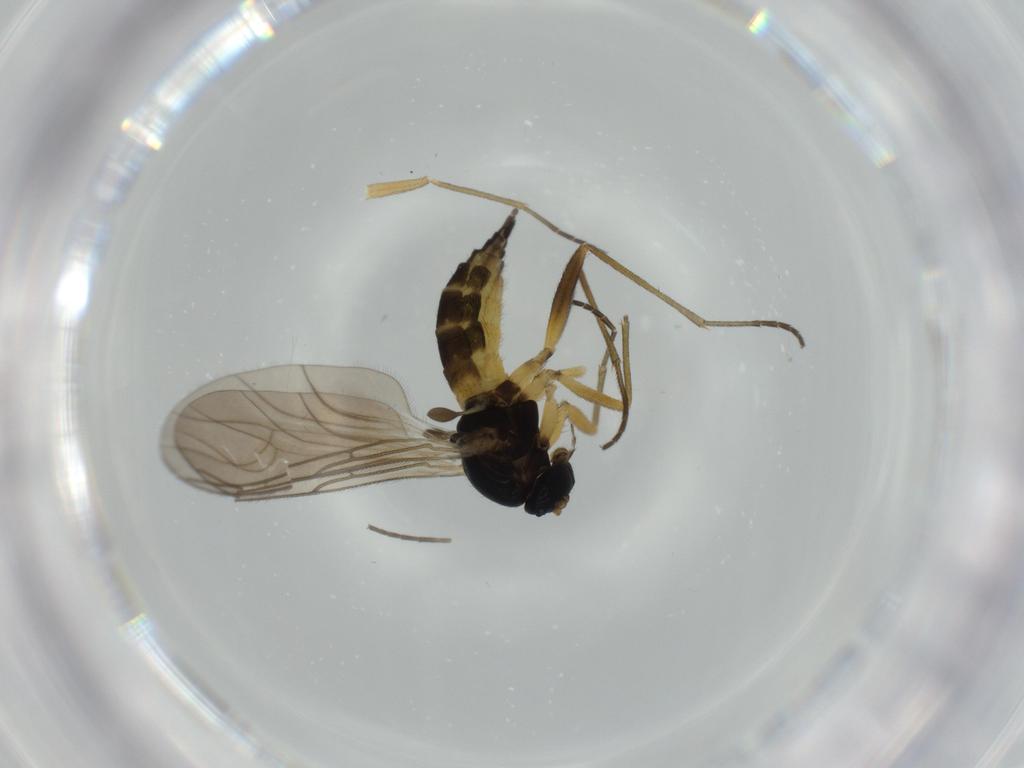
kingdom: Animalia
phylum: Arthropoda
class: Insecta
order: Diptera
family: Sciaridae
